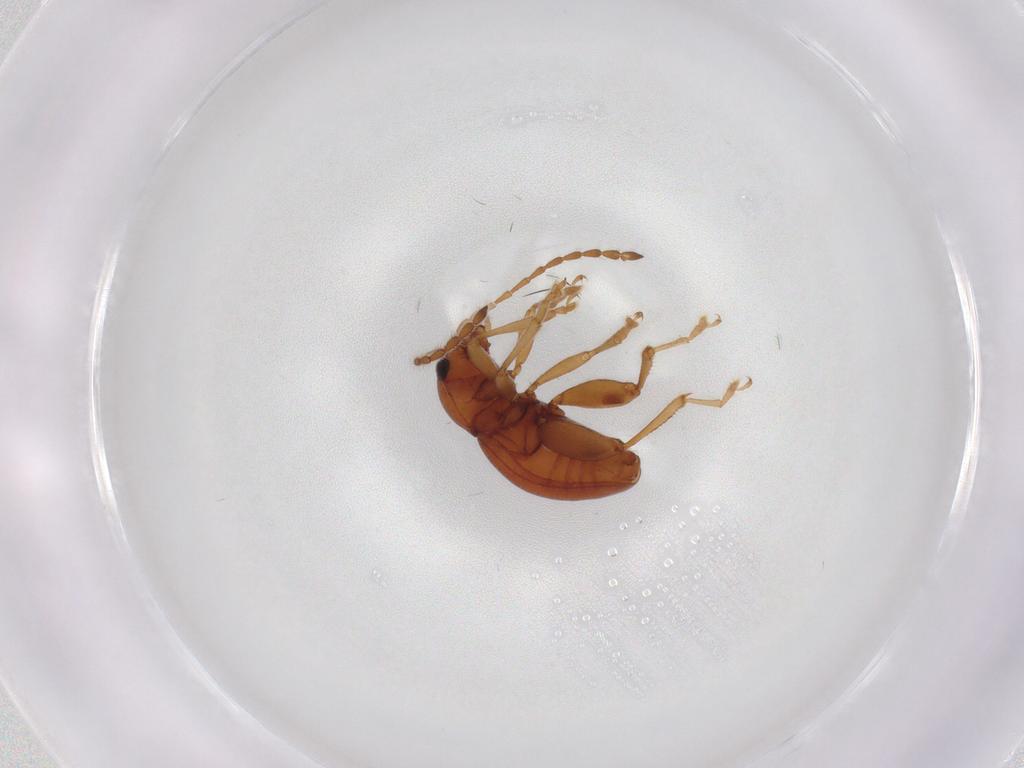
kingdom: Animalia
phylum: Arthropoda
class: Insecta
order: Coleoptera
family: Chrysomelidae
